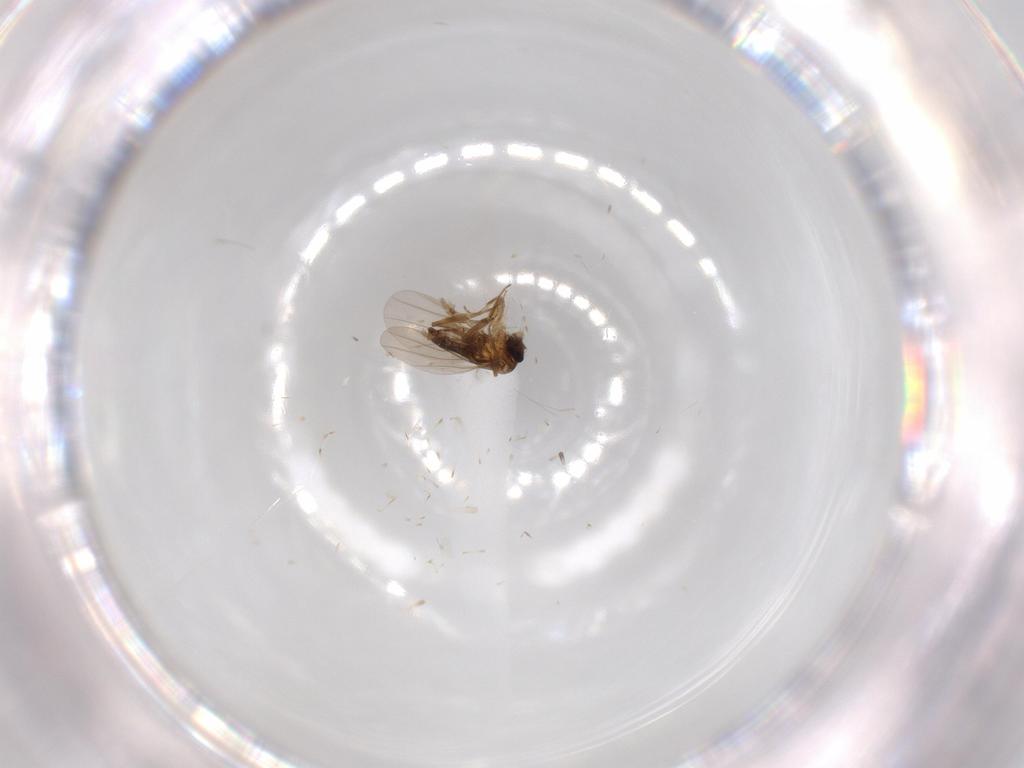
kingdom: Animalia
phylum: Arthropoda
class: Insecta
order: Diptera
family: Phoridae
